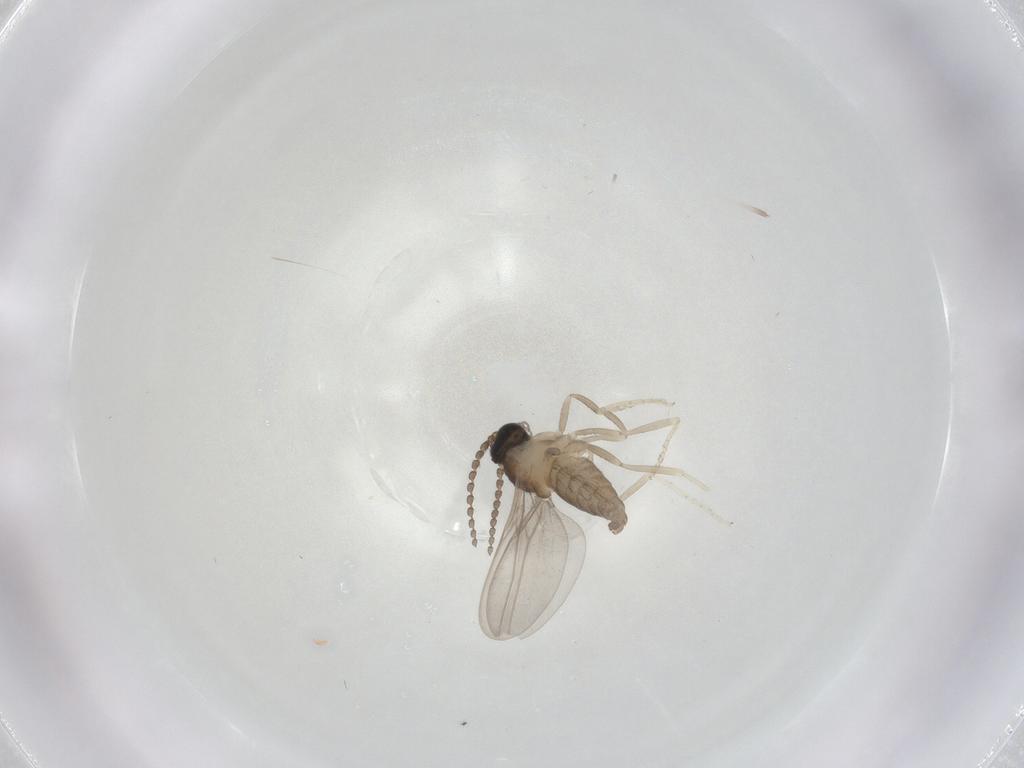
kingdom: Animalia
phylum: Arthropoda
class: Insecta
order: Diptera
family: Cecidomyiidae
